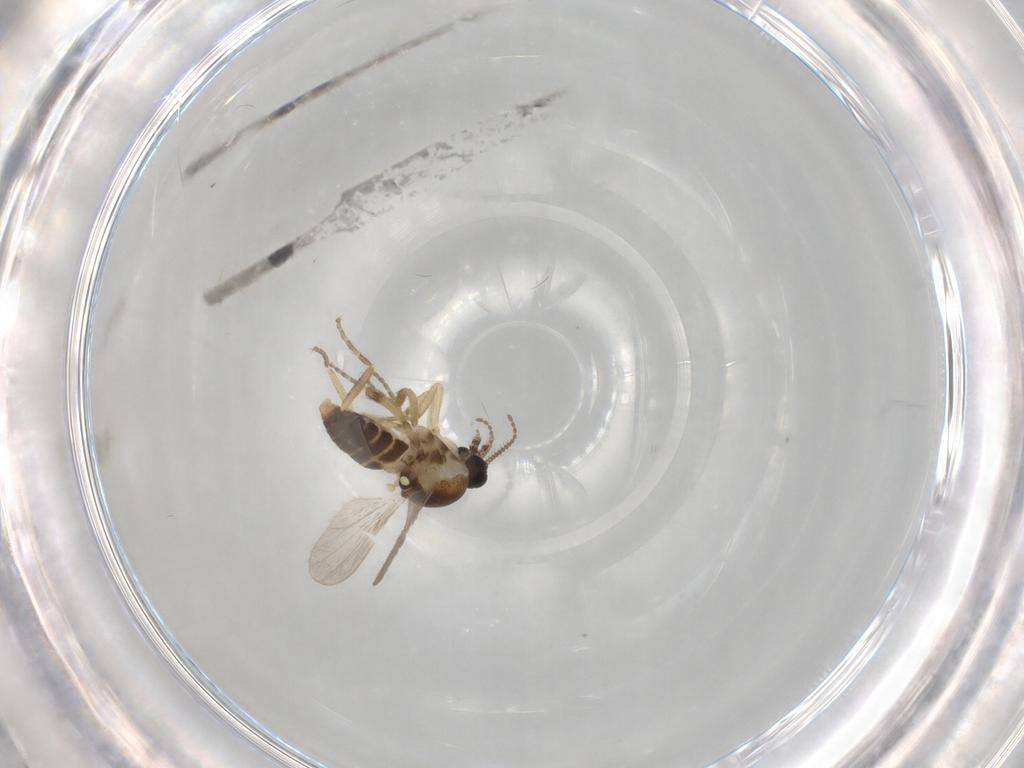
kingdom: Animalia
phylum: Arthropoda
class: Insecta
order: Diptera
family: Ceratopogonidae
